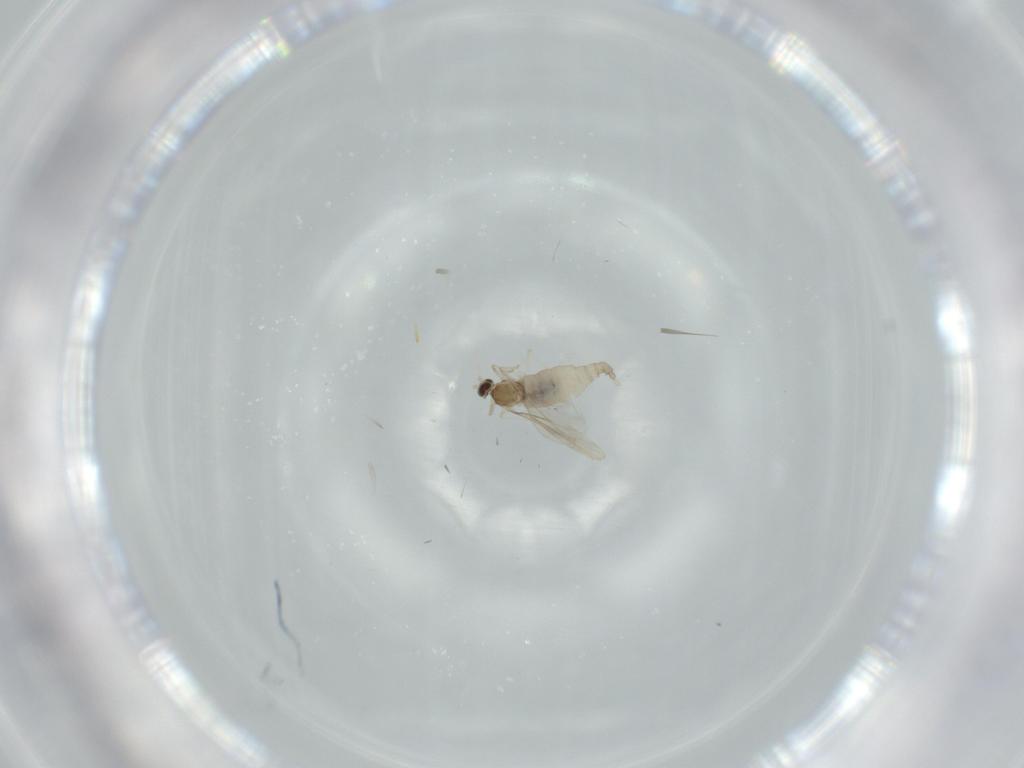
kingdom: Animalia
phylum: Arthropoda
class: Insecta
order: Diptera
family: Cecidomyiidae
